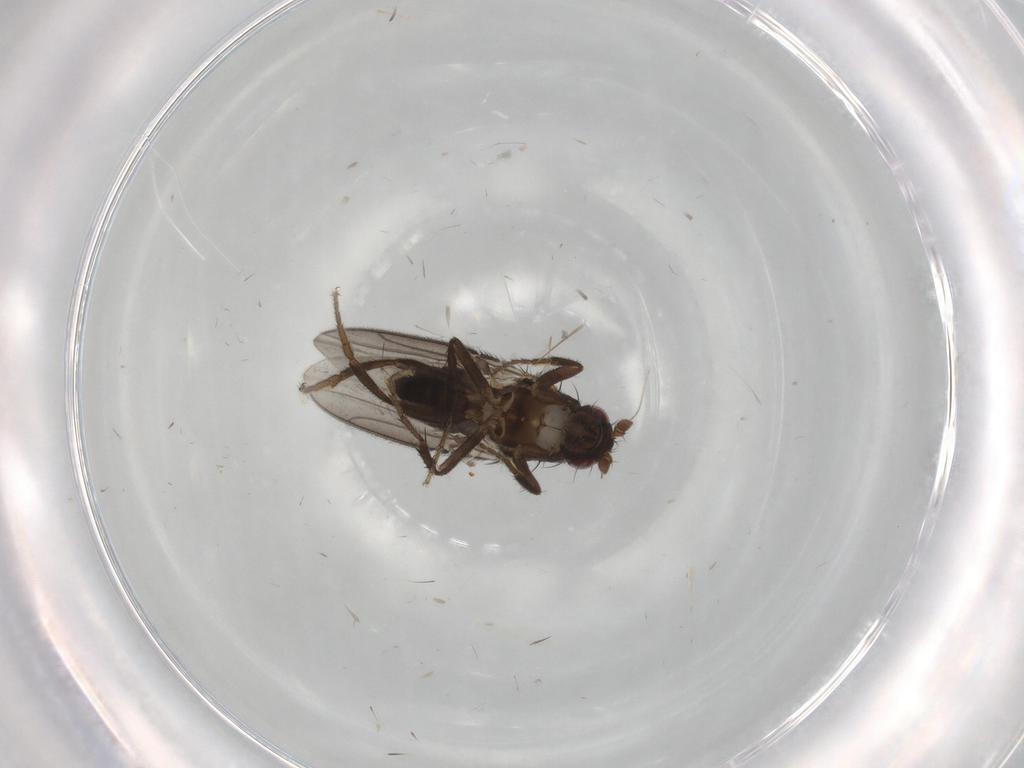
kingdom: Animalia
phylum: Arthropoda
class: Insecta
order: Diptera
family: Sphaeroceridae
